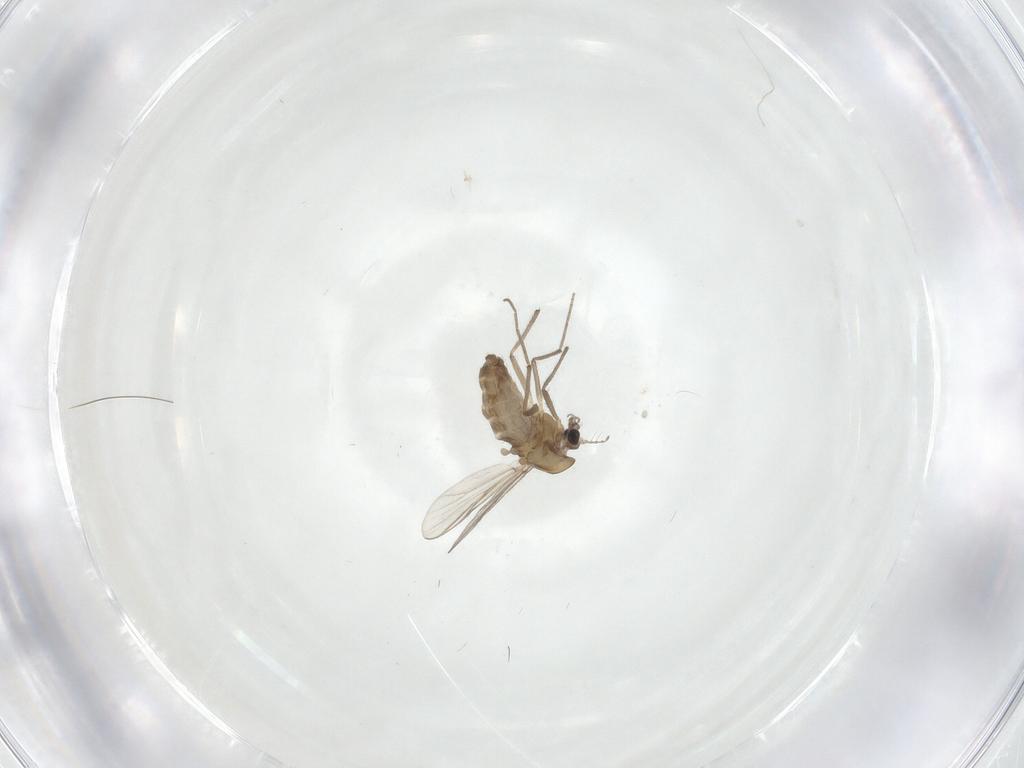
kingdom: Animalia
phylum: Arthropoda
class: Insecta
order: Diptera
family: Chironomidae
